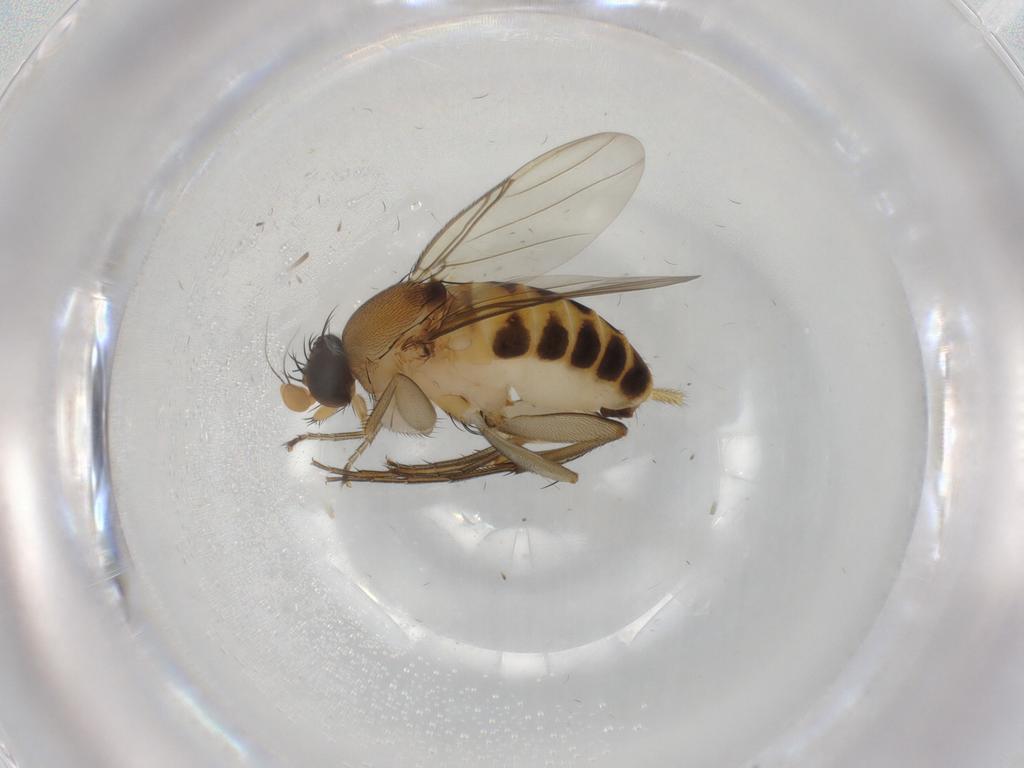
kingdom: Animalia
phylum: Arthropoda
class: Insecta
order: Diptera
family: Phoridae
